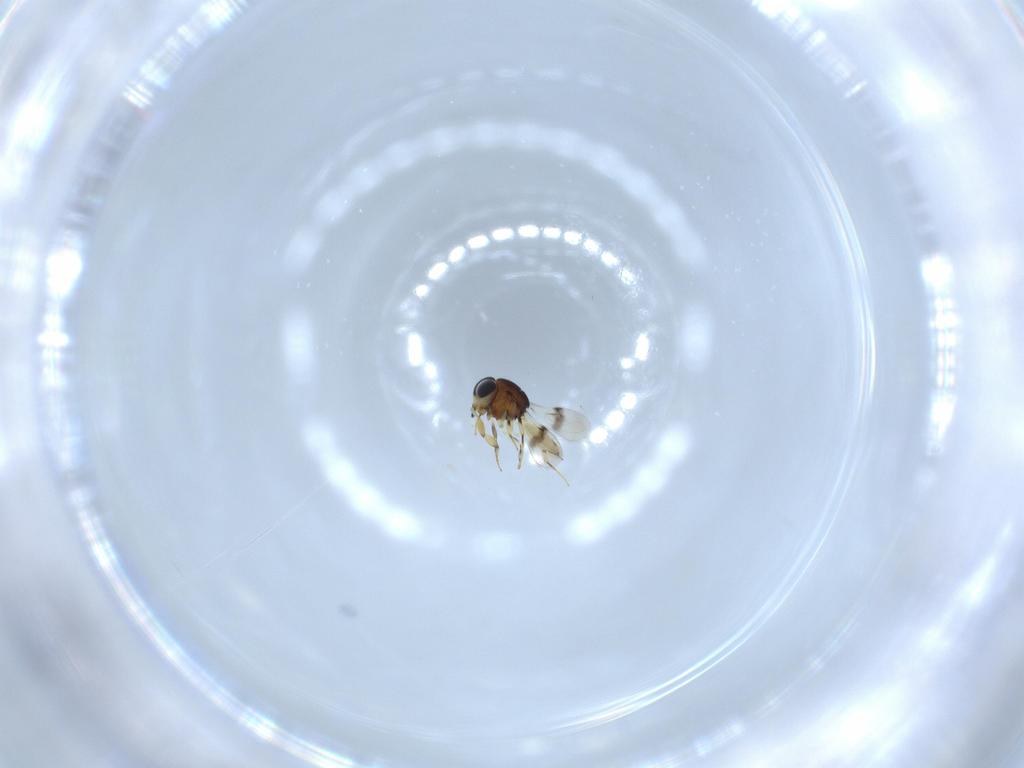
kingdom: Animalia
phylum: Arthropoda
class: Insecta
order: Hymenoptera
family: Scelionidae
